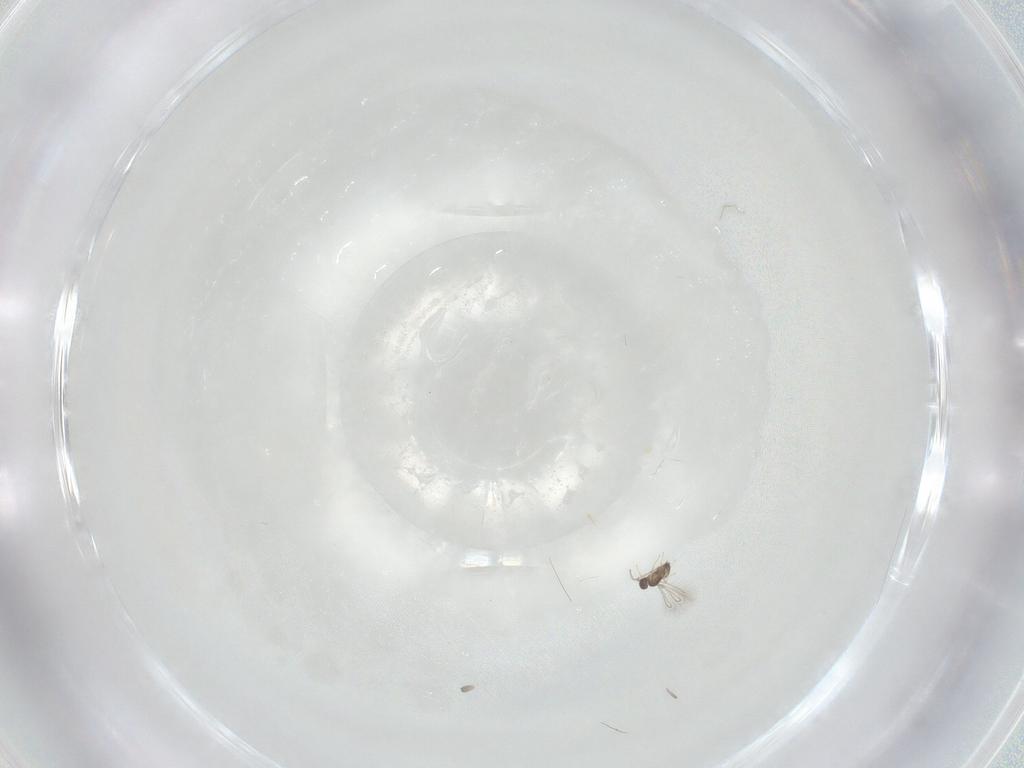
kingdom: Animalia
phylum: Arthropoda
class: Insecta
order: Hymenoptera
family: Mymaridae
